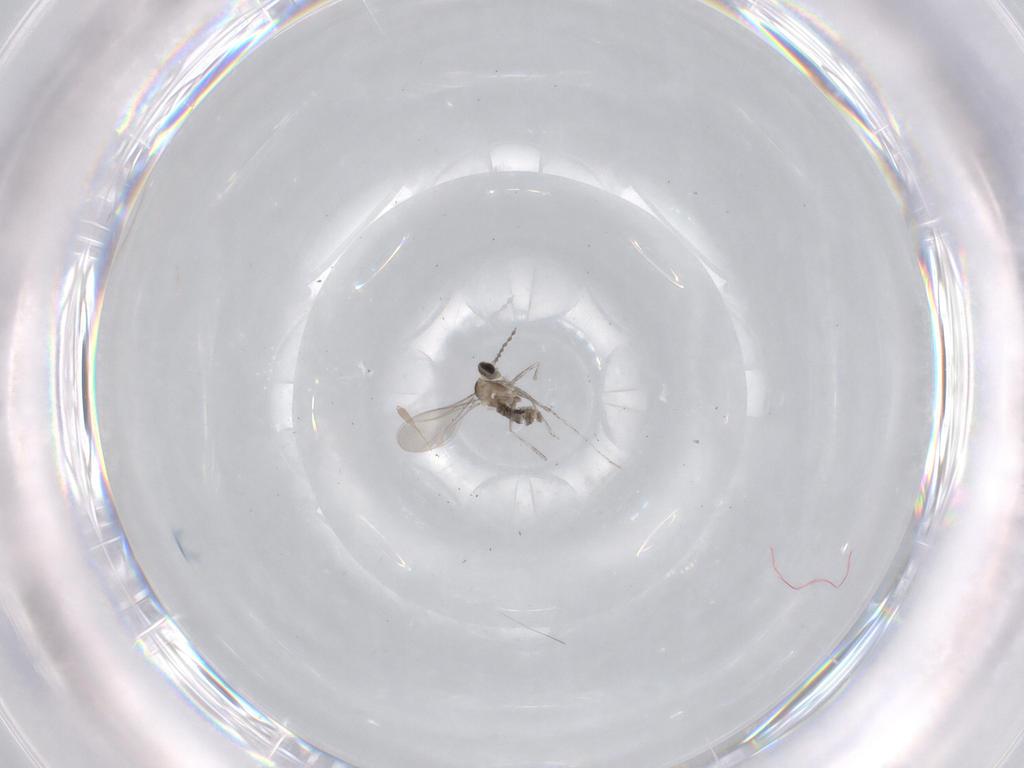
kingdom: Animalia
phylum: Arthropoda
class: Insecta
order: Diptera
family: Cecidomyiidae
